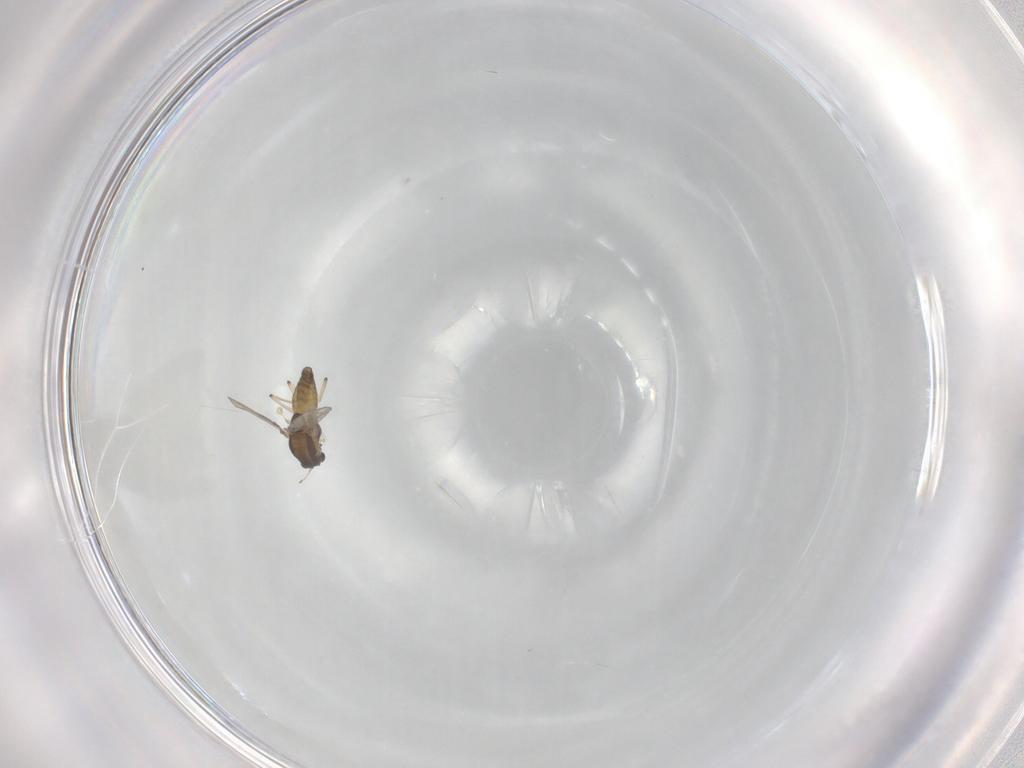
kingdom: Animalia
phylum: Arthropoda
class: Insecta
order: Diptera
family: Chironomidae
